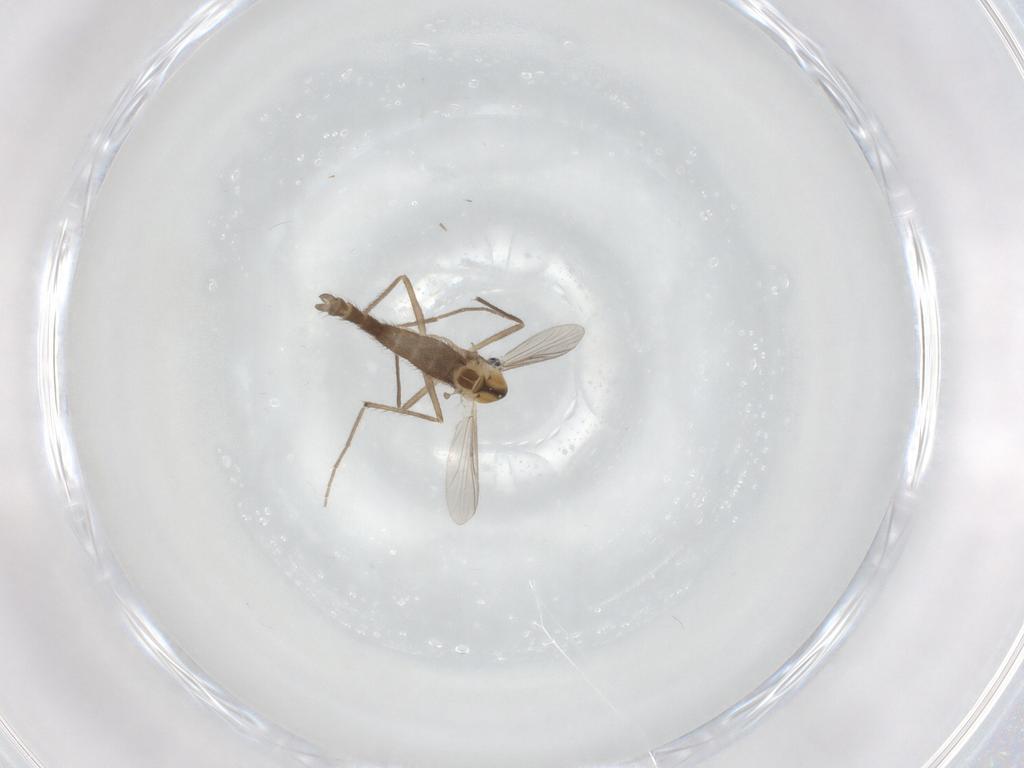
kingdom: Animalia
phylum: Arthropoda
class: Insecta
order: Diptera
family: Chironomidae
